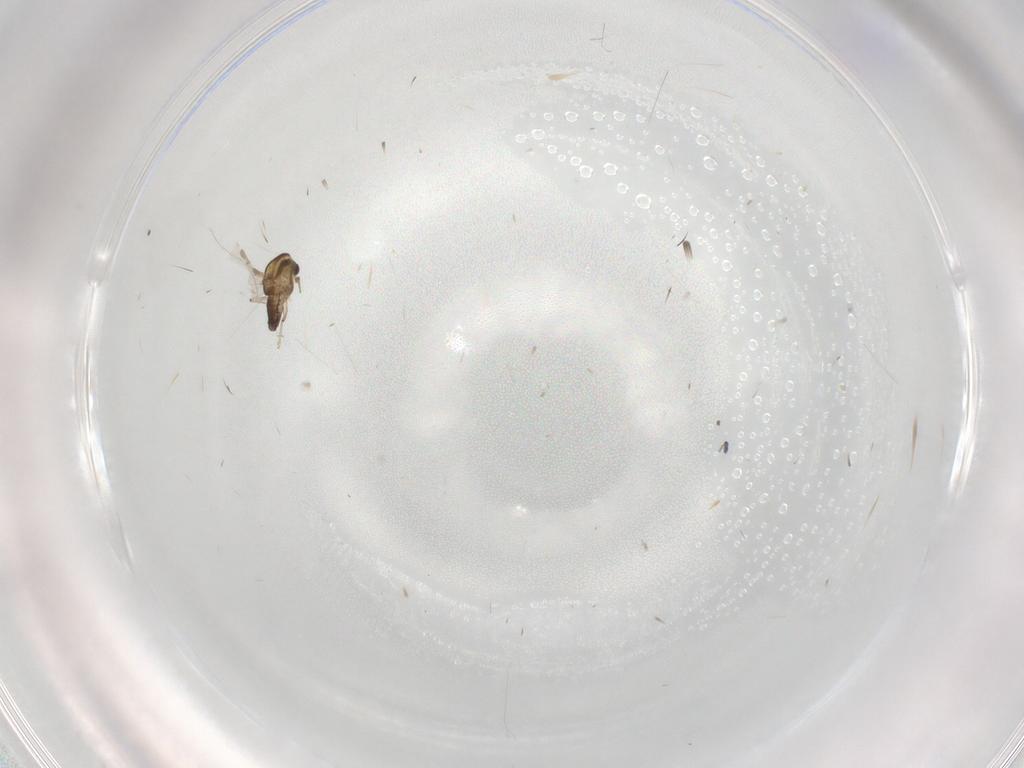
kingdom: Animalia
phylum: Arthropoda
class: Insecta
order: Diptera
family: Chironomidae
